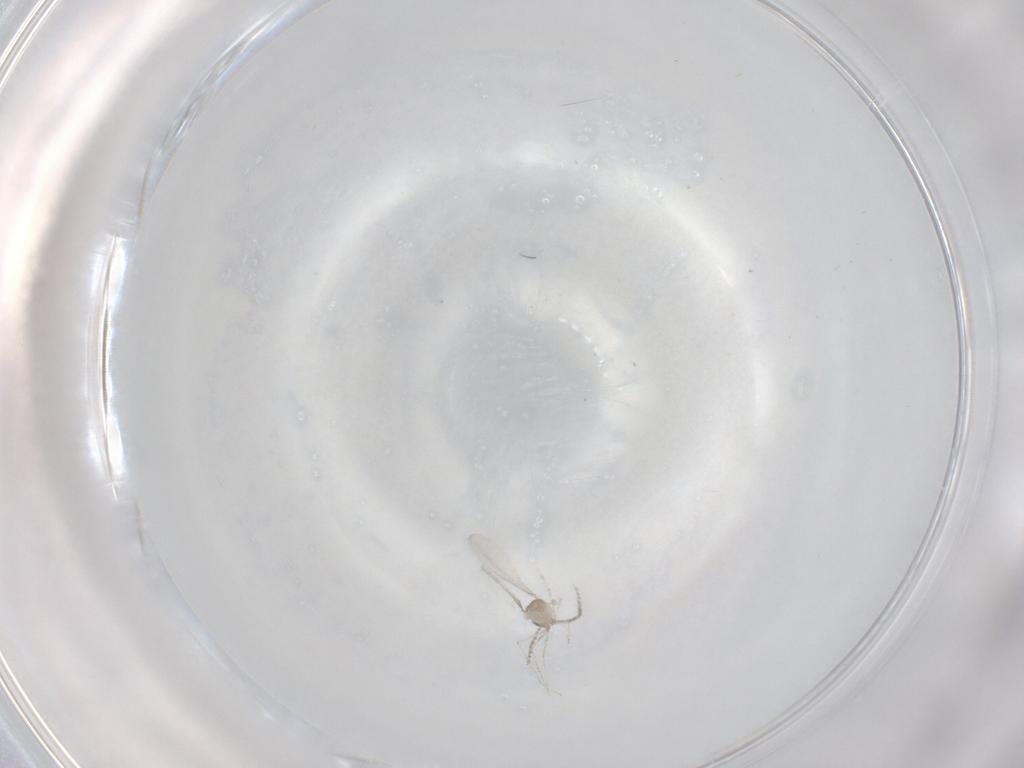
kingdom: Animalia
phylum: Arthropoda
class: Insecta
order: Diptera
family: Cecidomyiidae
